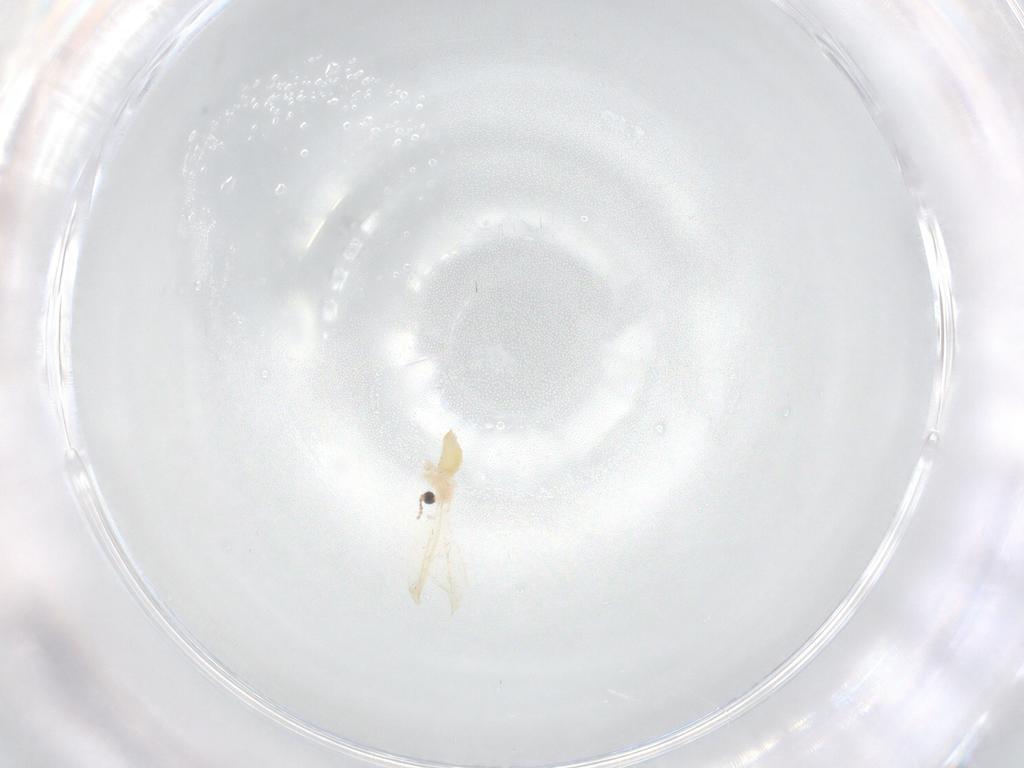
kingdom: Animalia
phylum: Arthropoda
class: Insecta
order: Diptera
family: Cecidomyiidae
